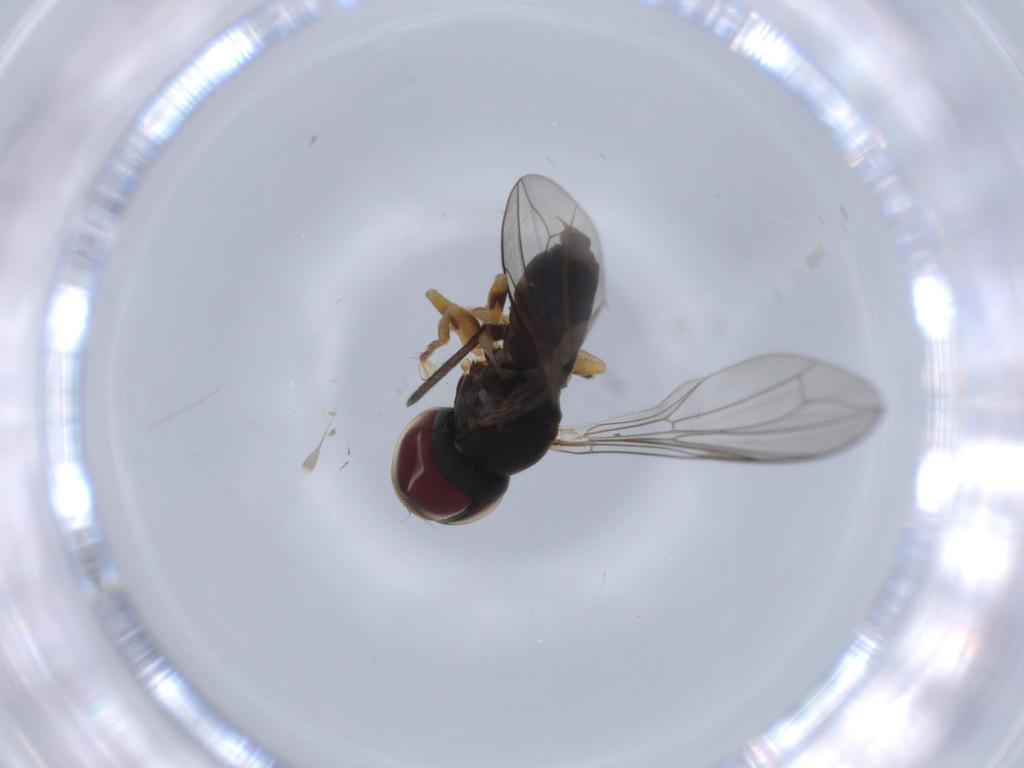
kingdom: Animalia
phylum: Arthropoda
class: Insecta
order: Diptera
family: Pipunculidae
